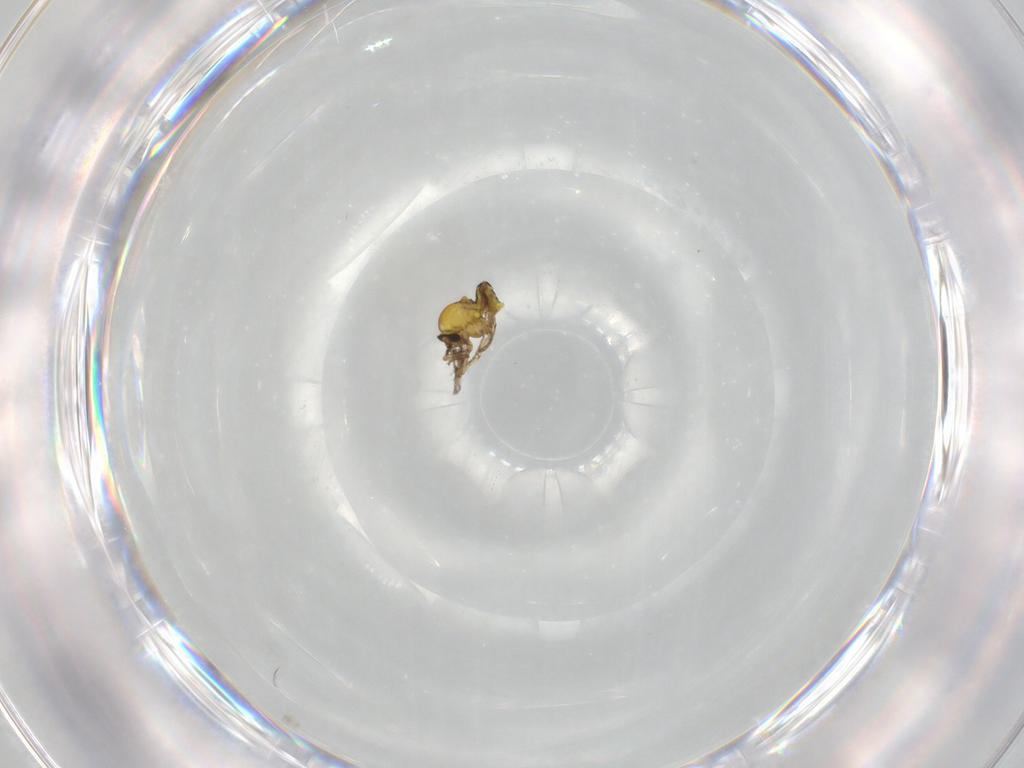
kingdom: Animalia
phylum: Arthropoda
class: Insecta
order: Diptera
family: Ceratopogonidae
